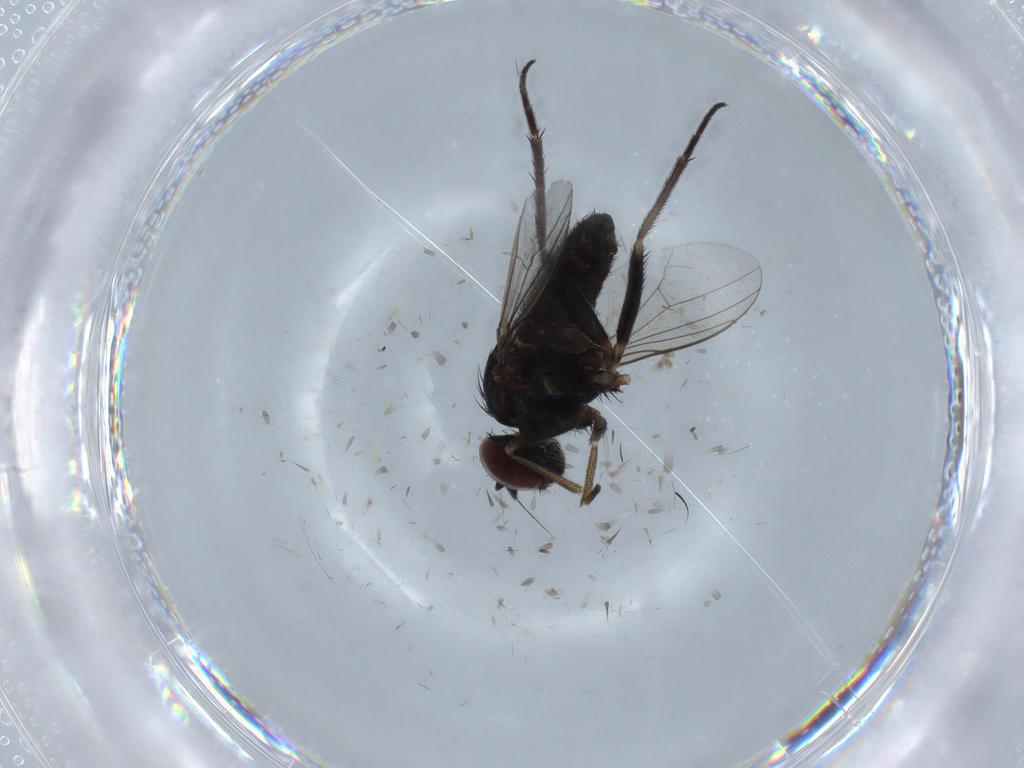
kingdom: Animalia
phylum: Arthropoda
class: Insecta
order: Diptera
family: Dolichopodidae
